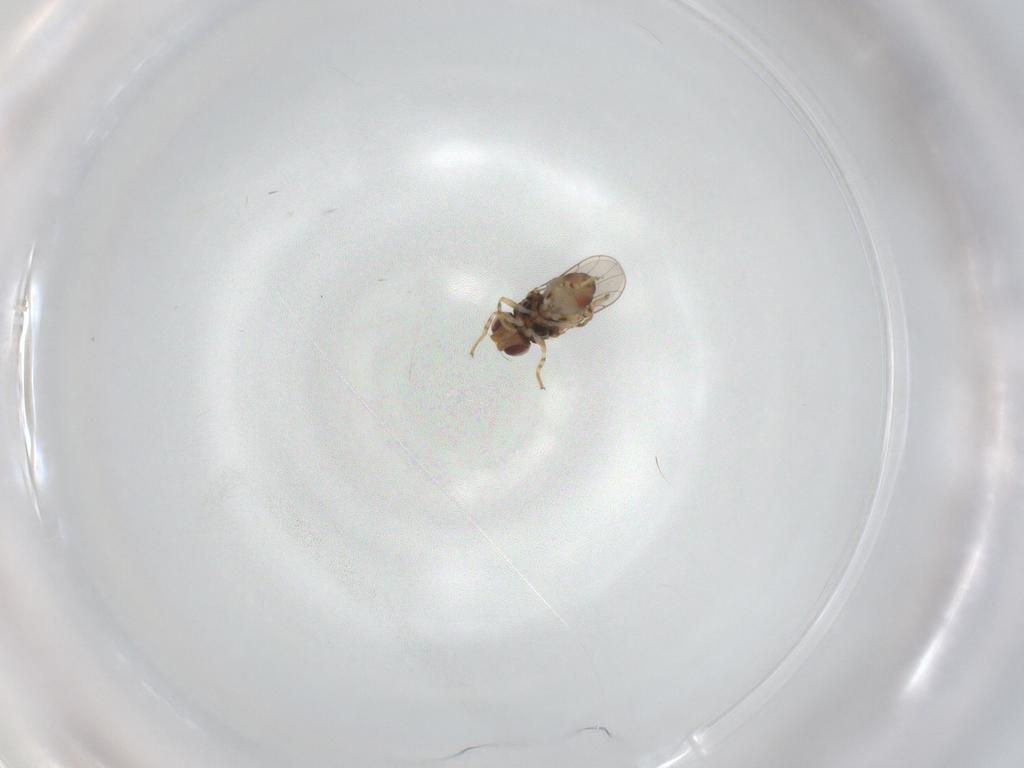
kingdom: Animalia
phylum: Arthropoda
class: Insecta
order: Diptera
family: Chloropidae
